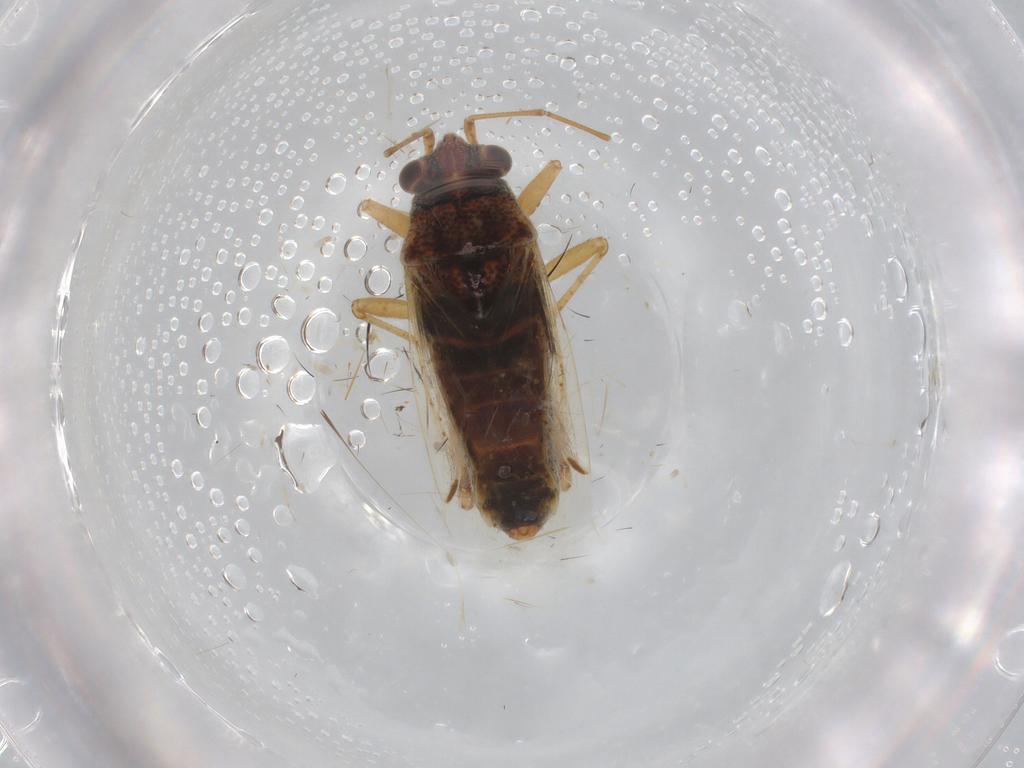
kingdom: Animalia
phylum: Arthropoda
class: Insecta
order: Hemiptera
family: Lygaeidae
